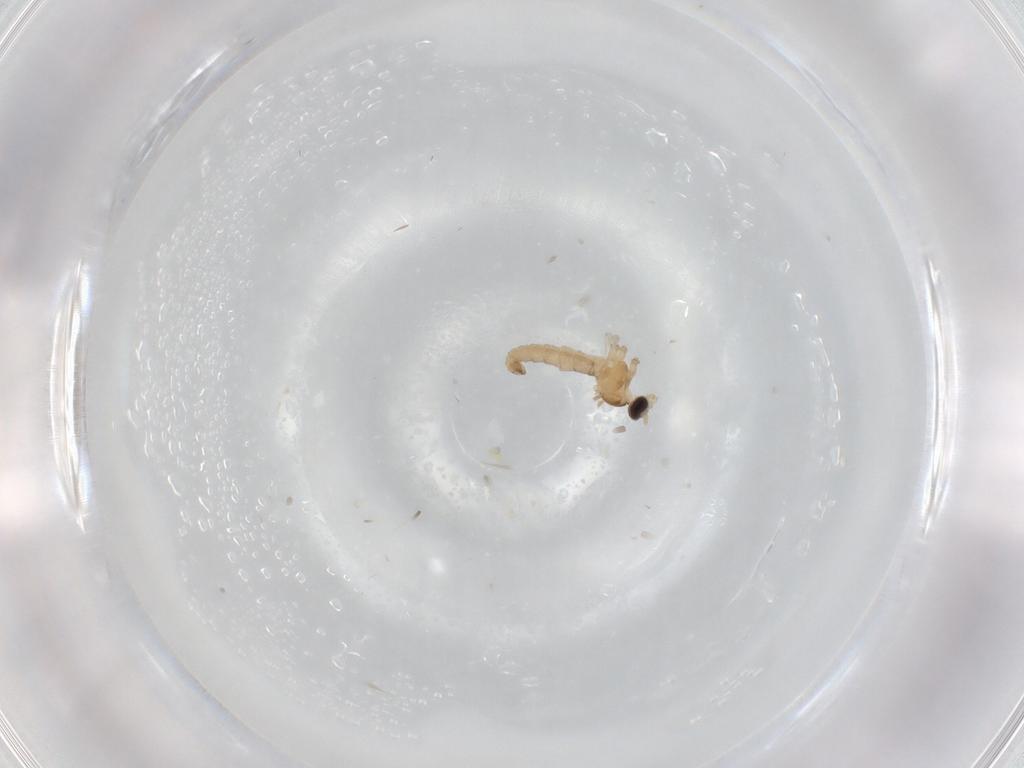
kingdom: Animalia
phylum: Arthropoda
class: Insecta
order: Diptera
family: Cecidomyiidae
